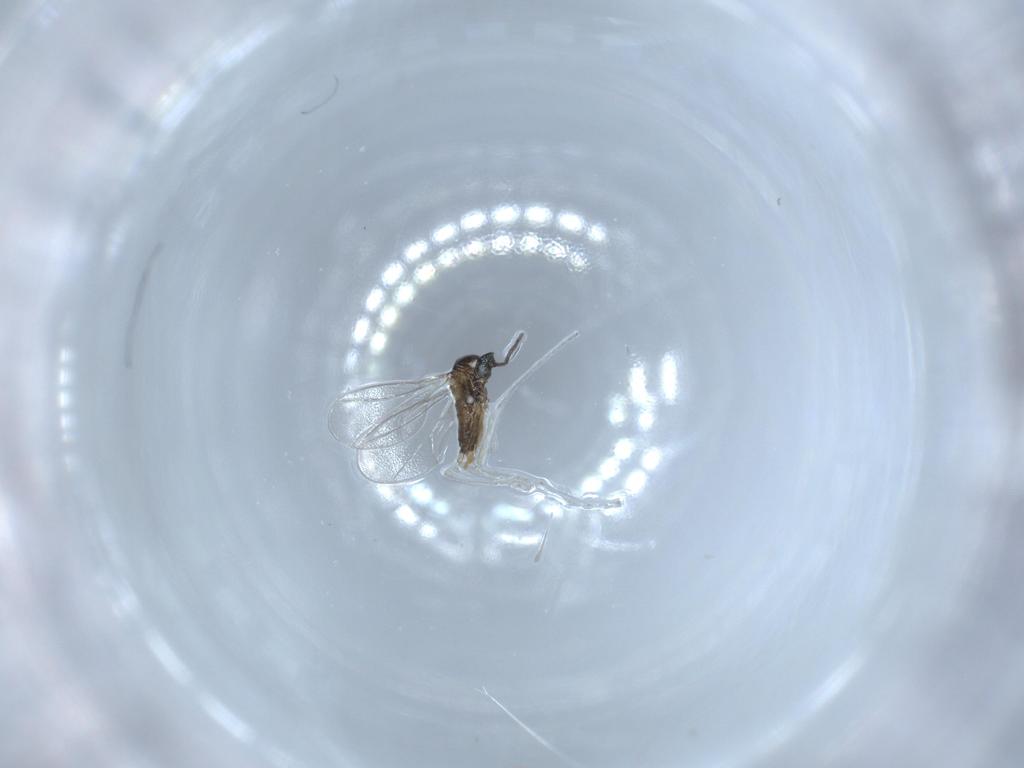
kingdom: Animalia
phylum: Arthropoda
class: Insecta
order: Diptera
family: Cecidomyiidae
